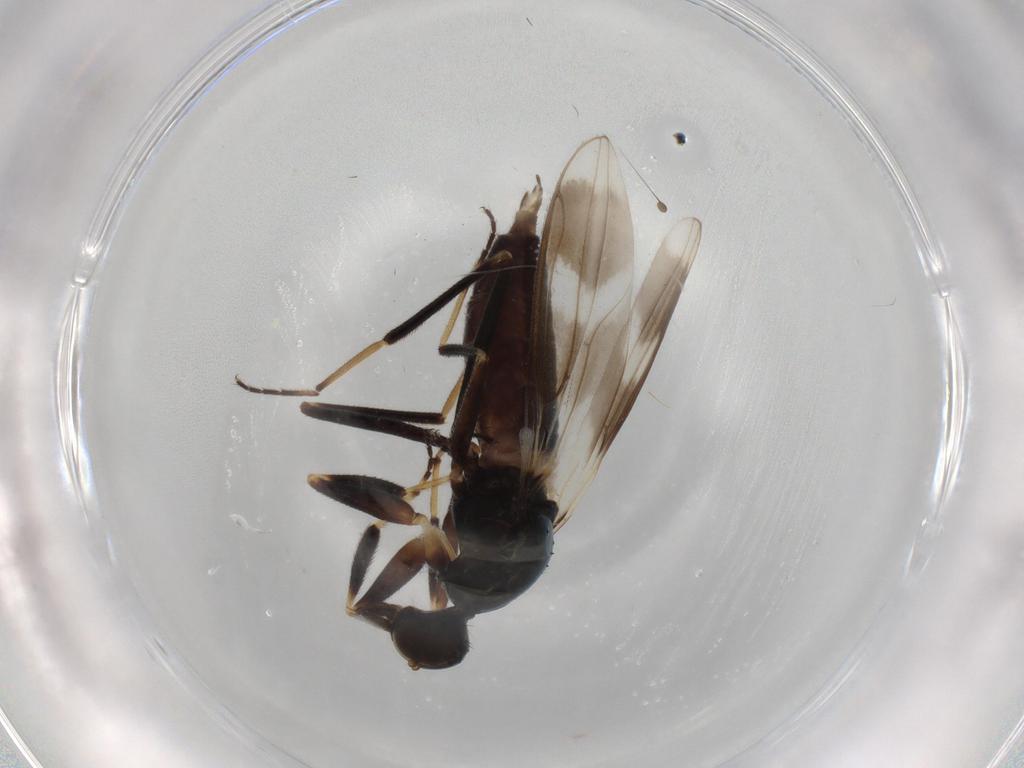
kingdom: Animalia
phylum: Arthropoda
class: Insecta
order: Diptera
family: Hybotidae
